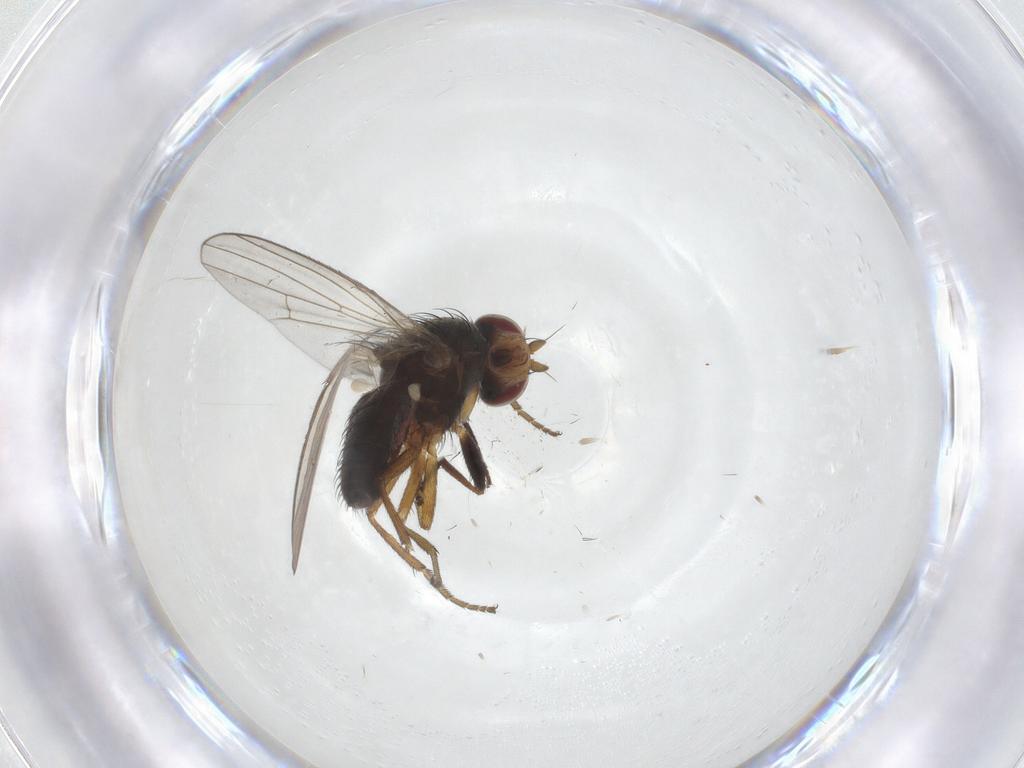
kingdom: Animalia
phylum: Arthropoda
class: Insecta
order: Diptera
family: Heleomyzidae
